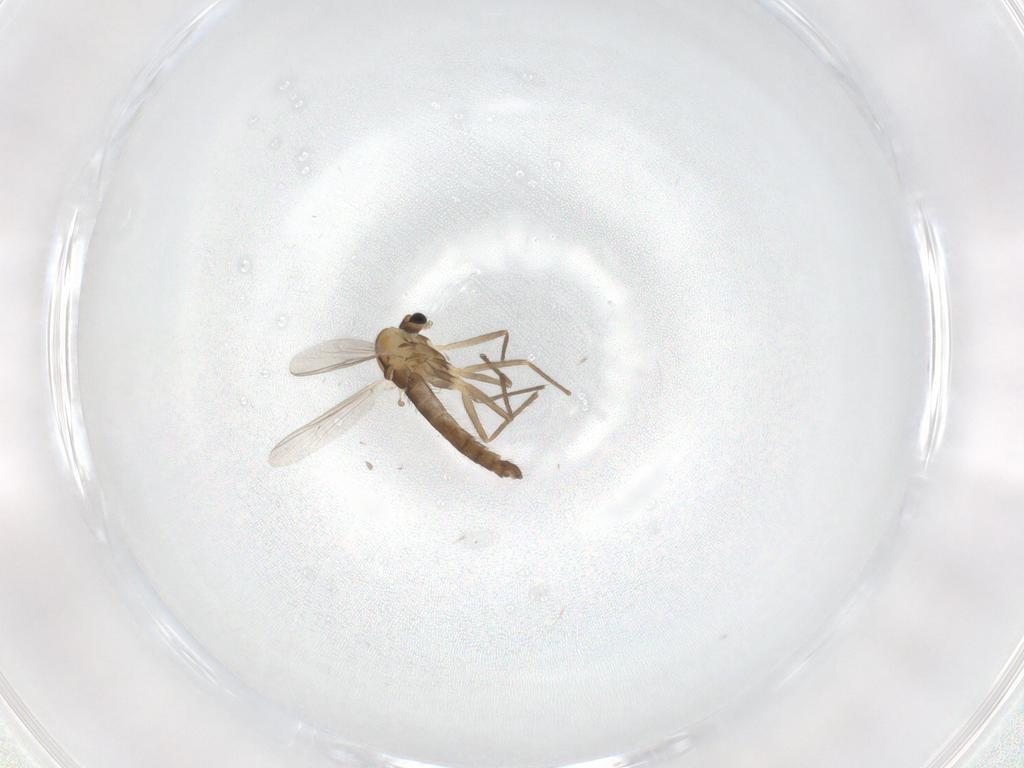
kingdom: Animalia
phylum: Arthropoda
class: Insecta
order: Diptera
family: Chironomidae
